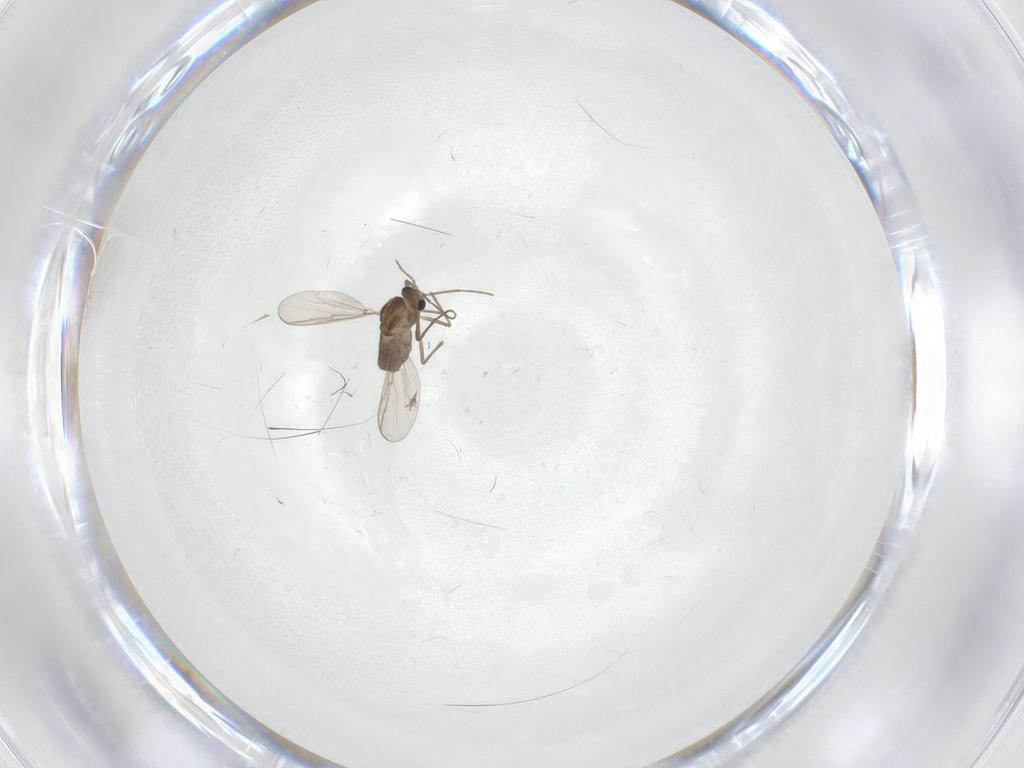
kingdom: Animalia
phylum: Arthropoda
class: Insecta
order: Diptera
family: Chironomidae
